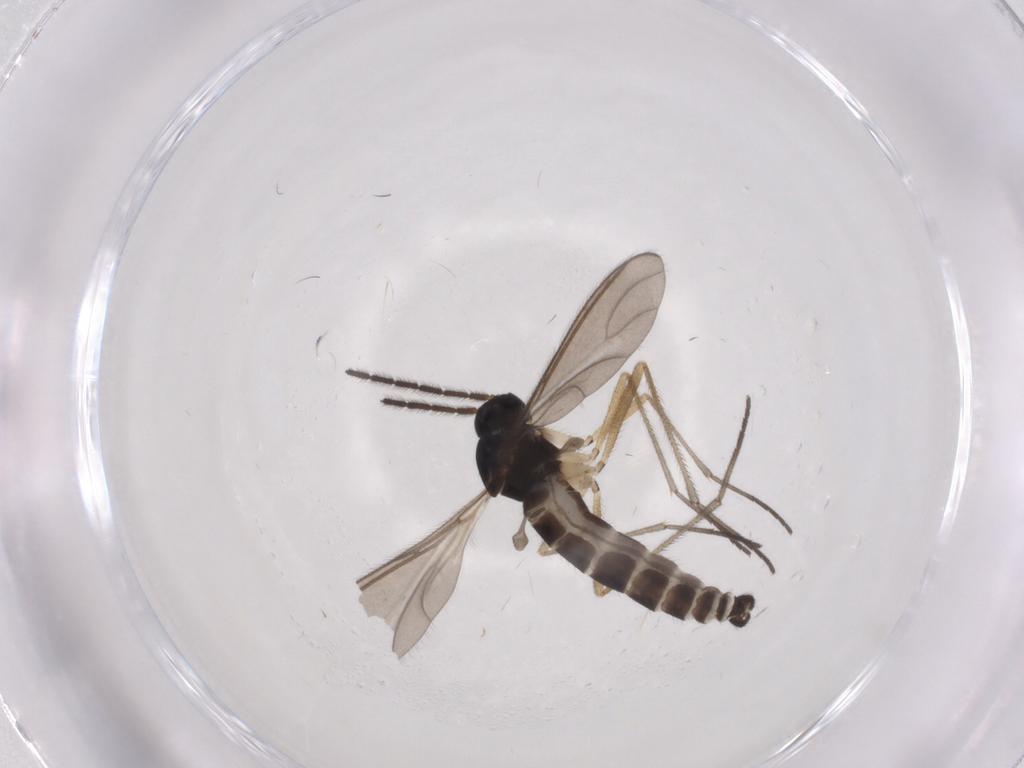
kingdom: Animalia
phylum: Arthropoda
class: Insecta
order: Diptera
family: Sciaridae
